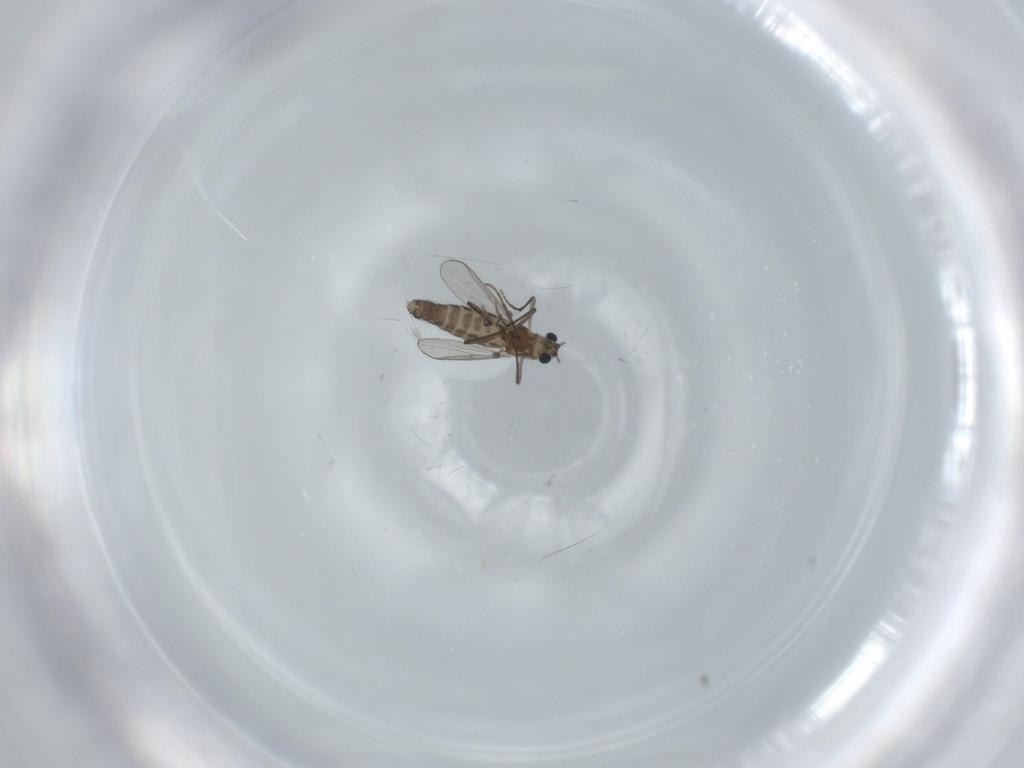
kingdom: Animalia
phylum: Arthropoda
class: Insecta
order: Diptera
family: Chironomidae
